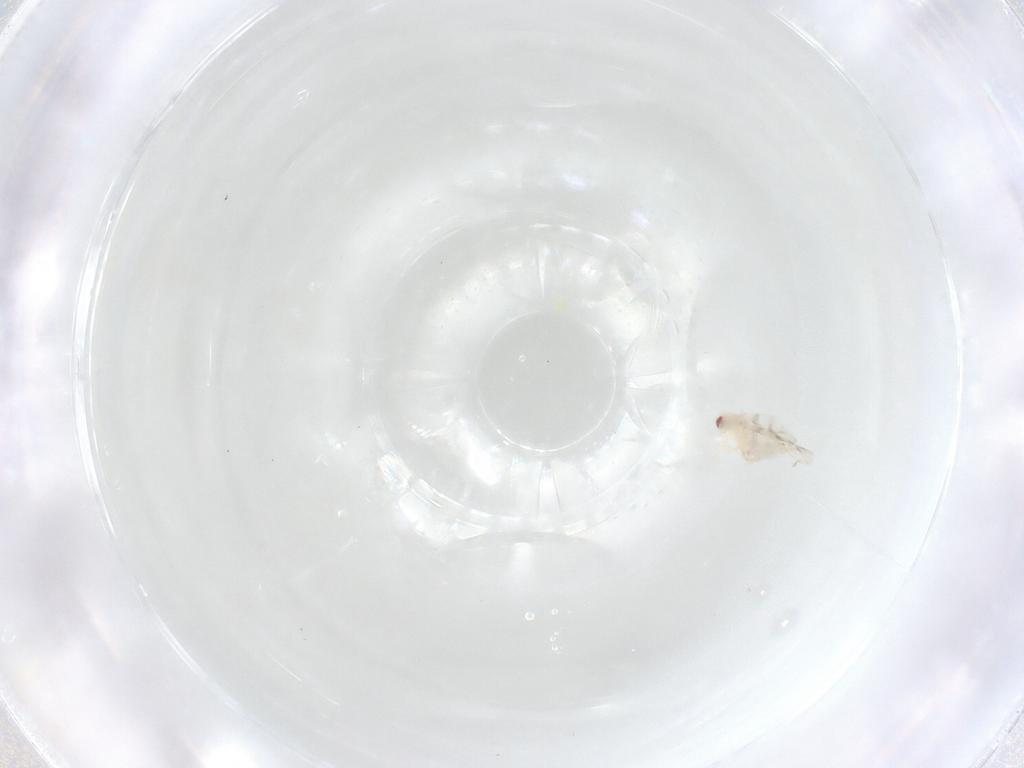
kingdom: Animalia
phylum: Arthropoda
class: Insecta
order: Hemiptera
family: Aleyrodidae
